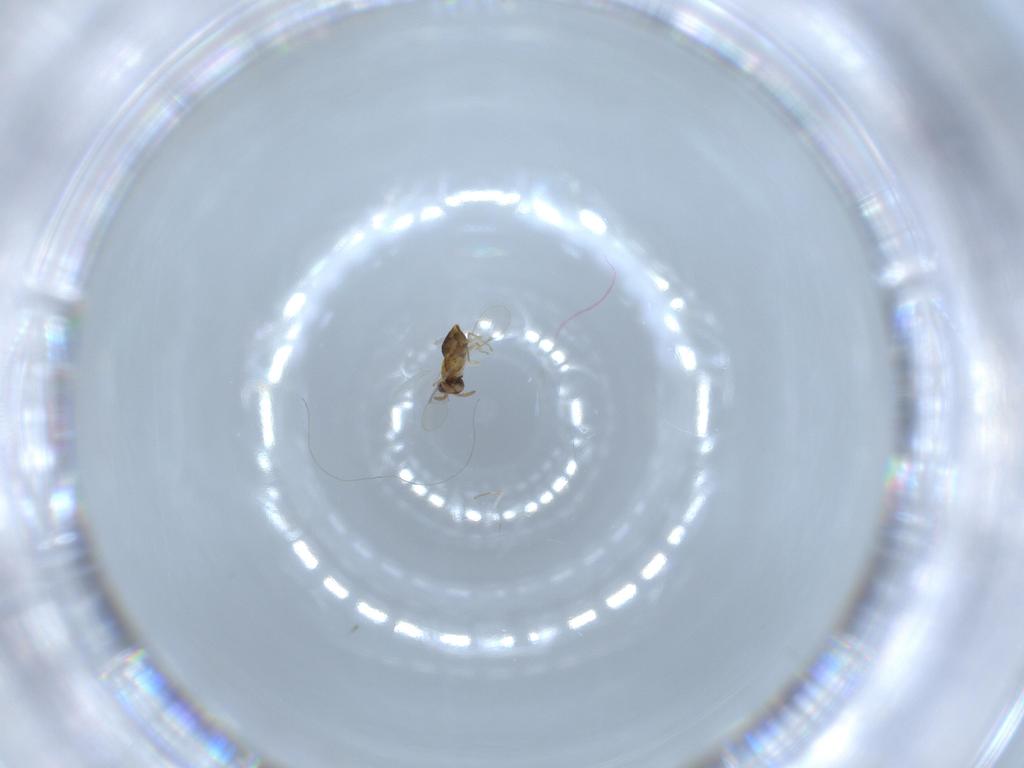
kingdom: Animalia
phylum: Arthropoda
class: Insecta
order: Hymenoptera
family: Aphelinidae
